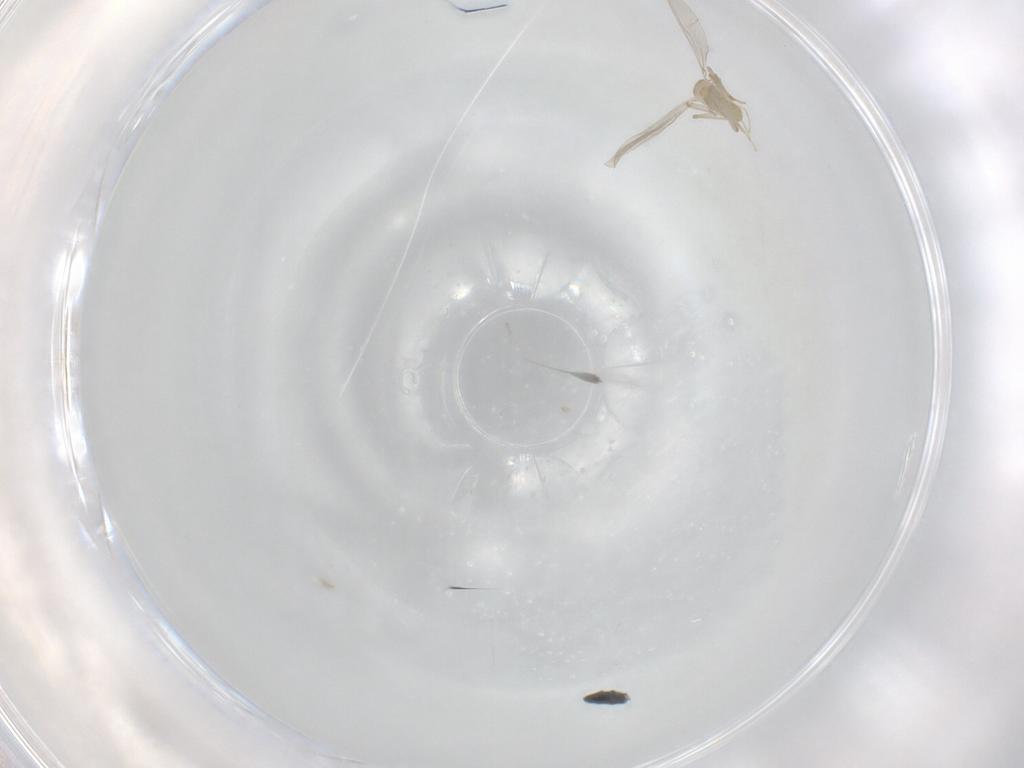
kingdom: Animalia
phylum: Arthropoda
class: Insecta
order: Diptera
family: Chironomidae
